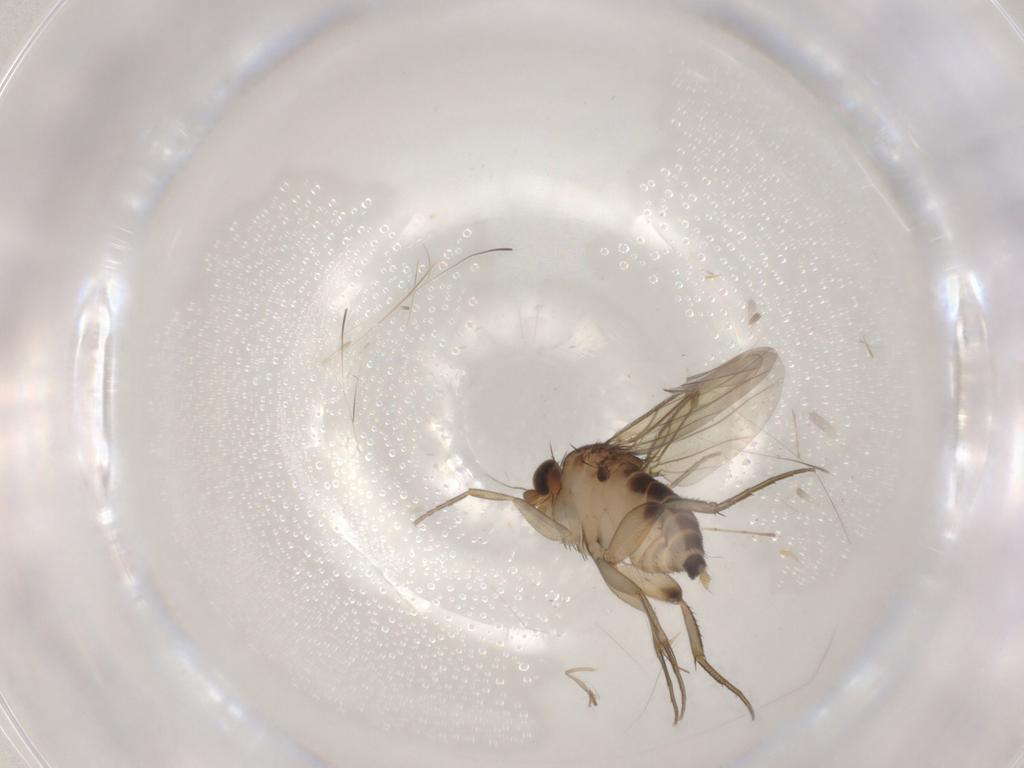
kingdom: Animalia
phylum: Arthropoda
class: Insecta
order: Diptera
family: Cecidomyiidae
